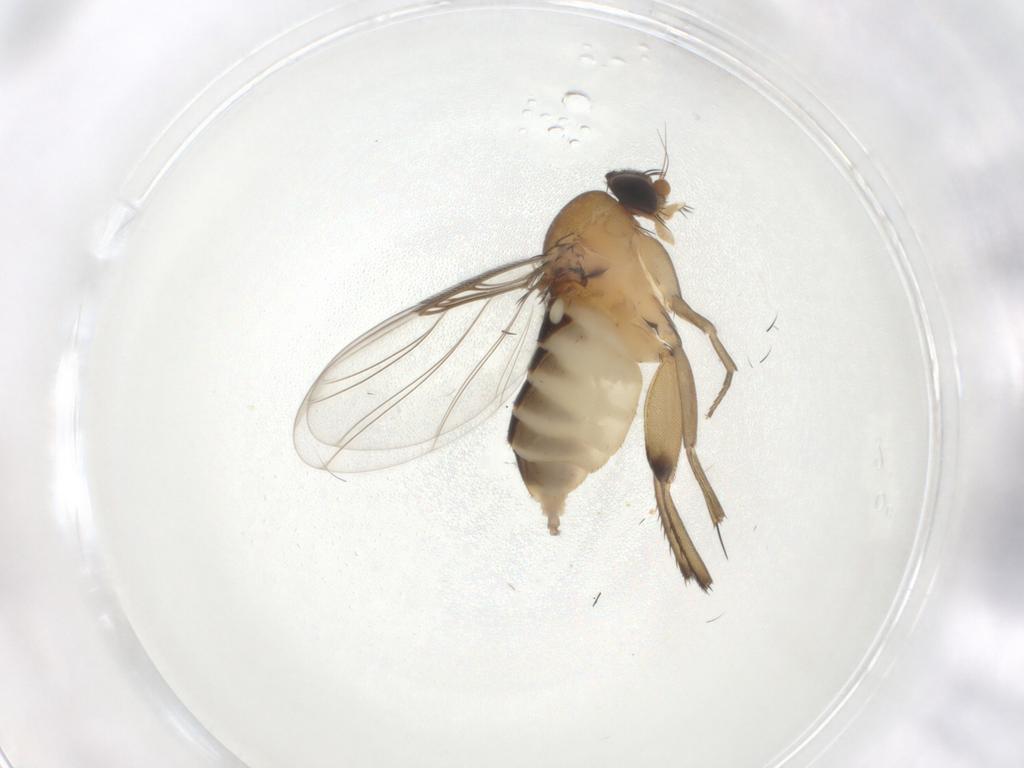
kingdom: Animalia
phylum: Arthropoda
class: Insecta
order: Diptera
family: Phoridae
